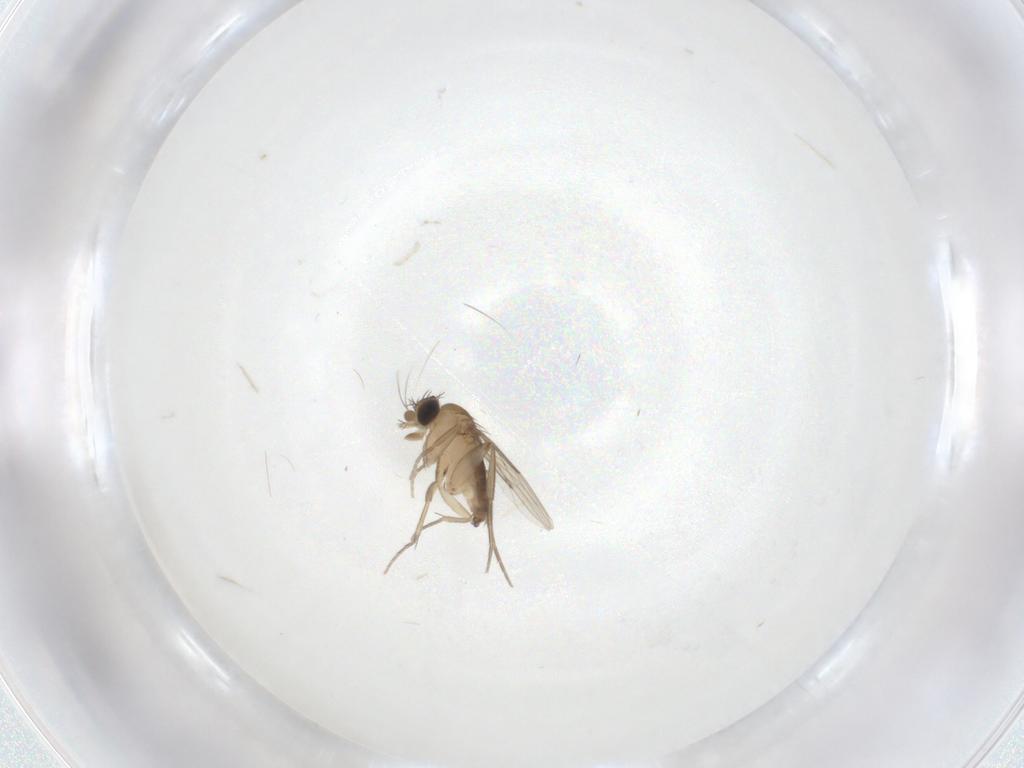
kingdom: Animalia
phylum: Arthropoda
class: Insecta
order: Diptera
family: Phoridae
